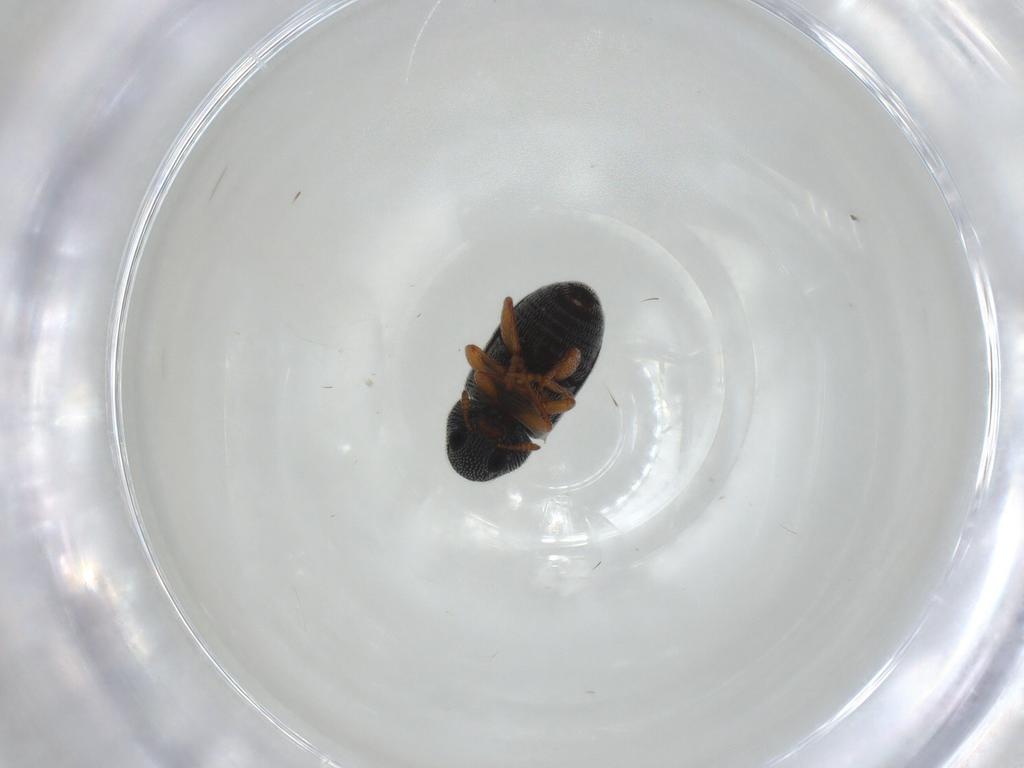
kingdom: Animalia
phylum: Arthropoda
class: Insecta
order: Coleoptera
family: Anthribidae
